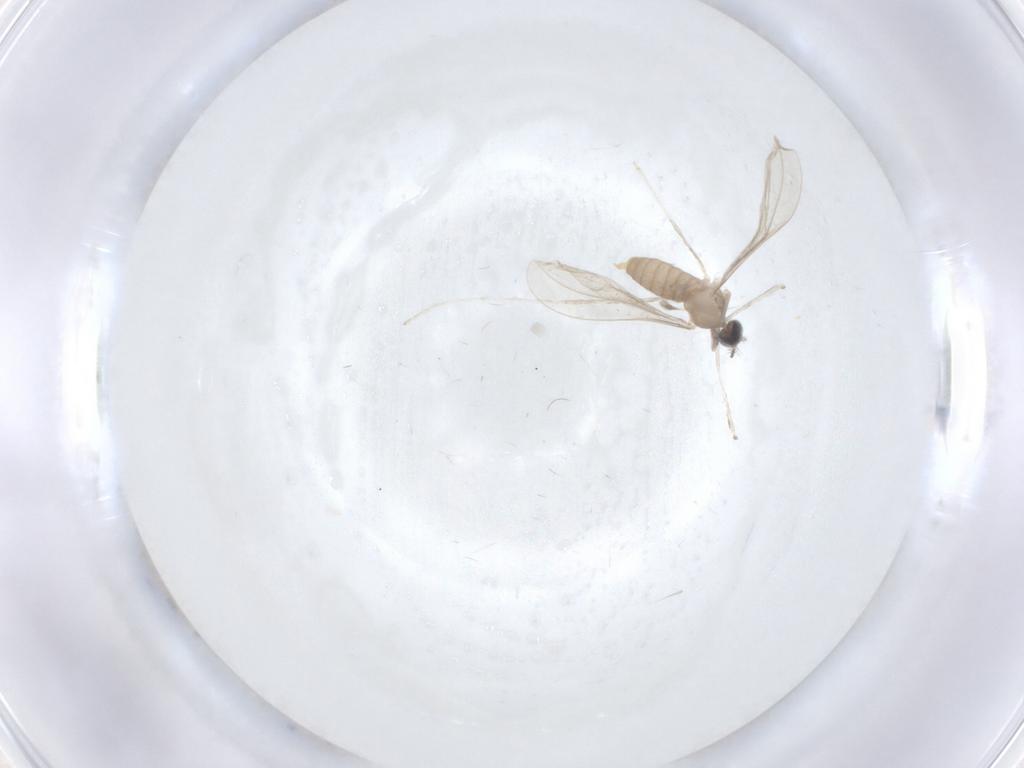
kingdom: Animalia
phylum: Arthropoda
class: Insecta
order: Diptera
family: Cecidomyiidae
